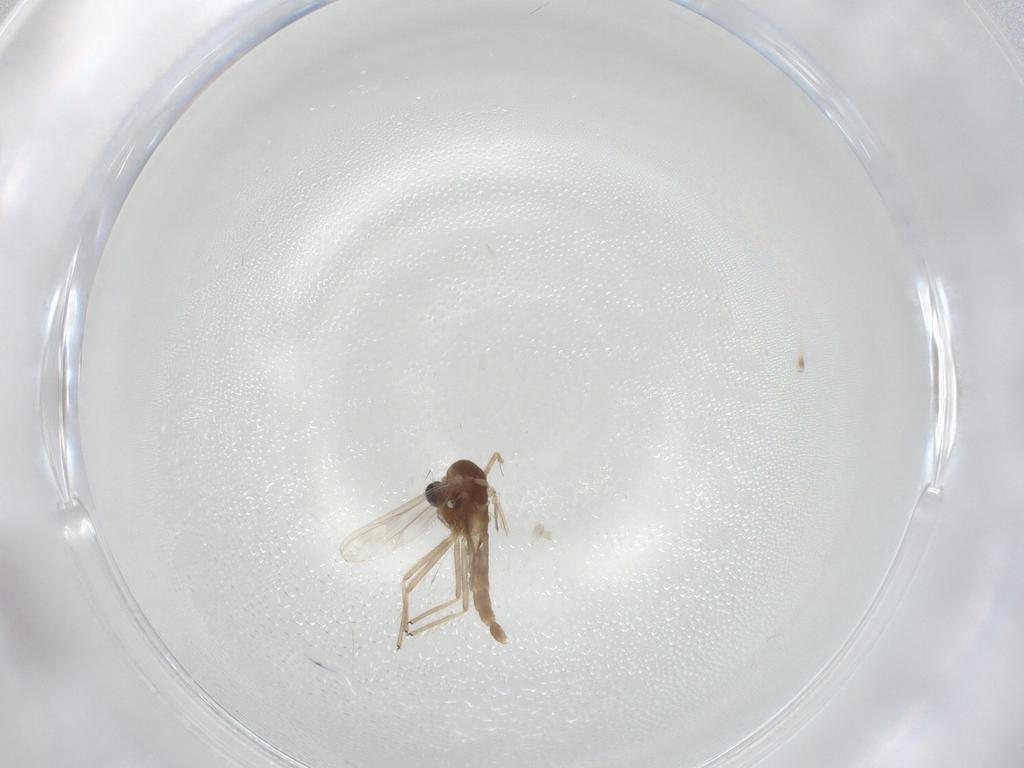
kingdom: Animalia
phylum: Arthropoda
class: Insecta
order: Diptera
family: Chironomidae
